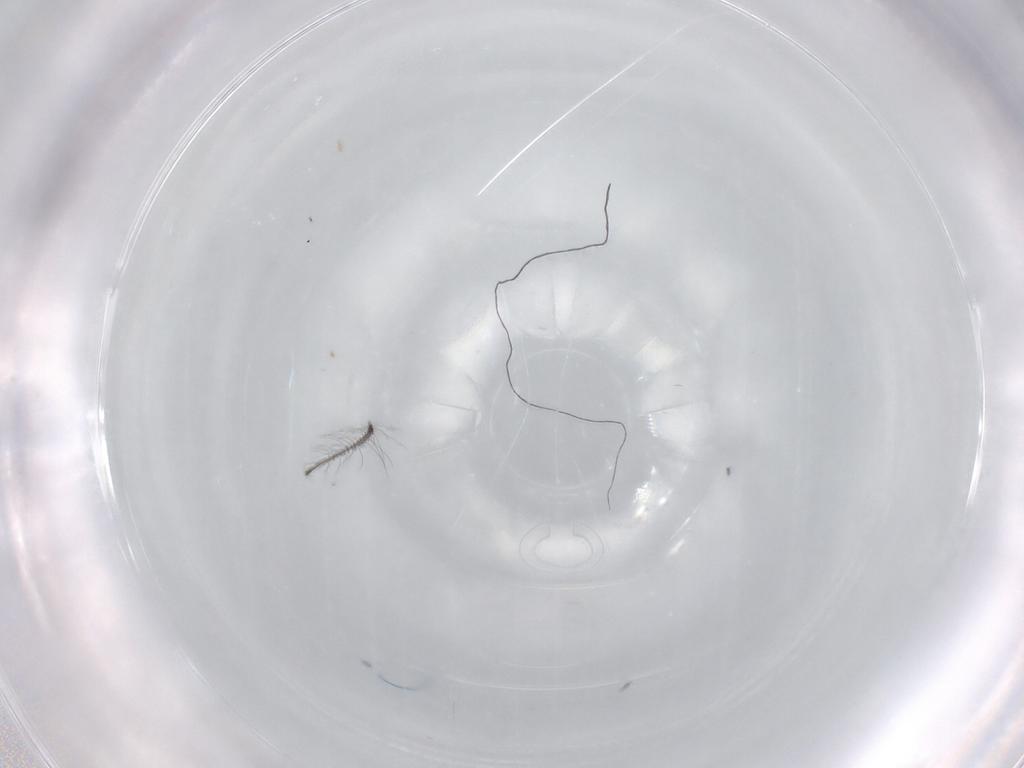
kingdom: Animalia
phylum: Arthropoda
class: Insecta
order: Diptera
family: Chironomidae
